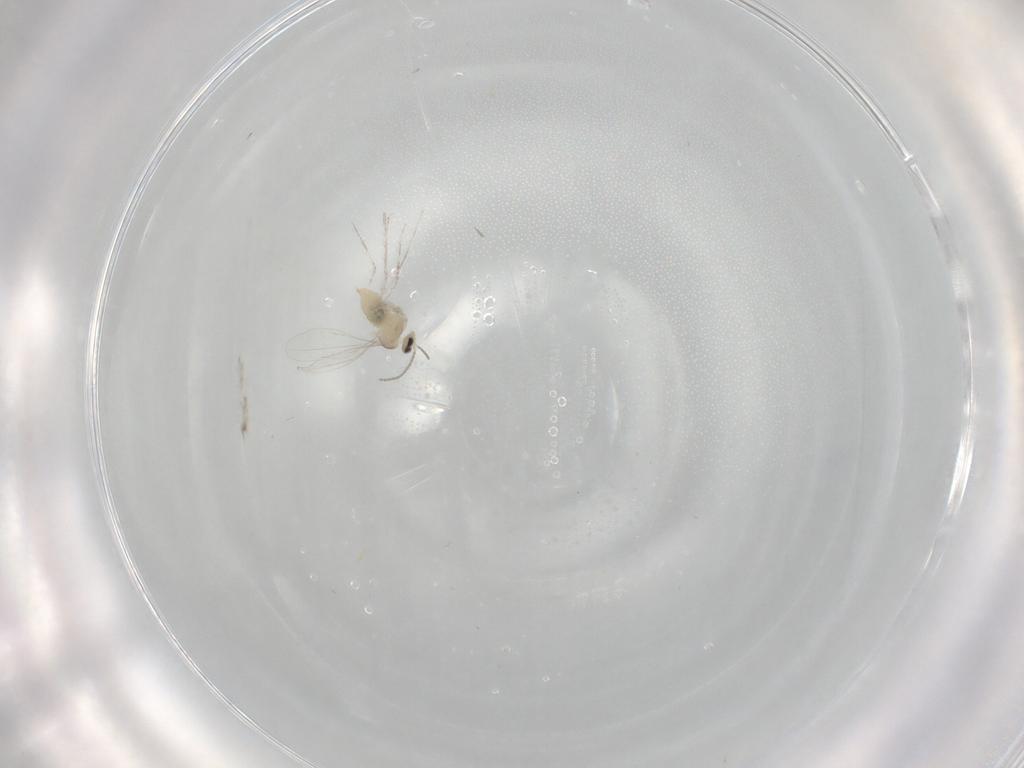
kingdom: Animalia
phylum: Arthropoda
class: Insecta
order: Diptera
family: Cecidomyiidae
